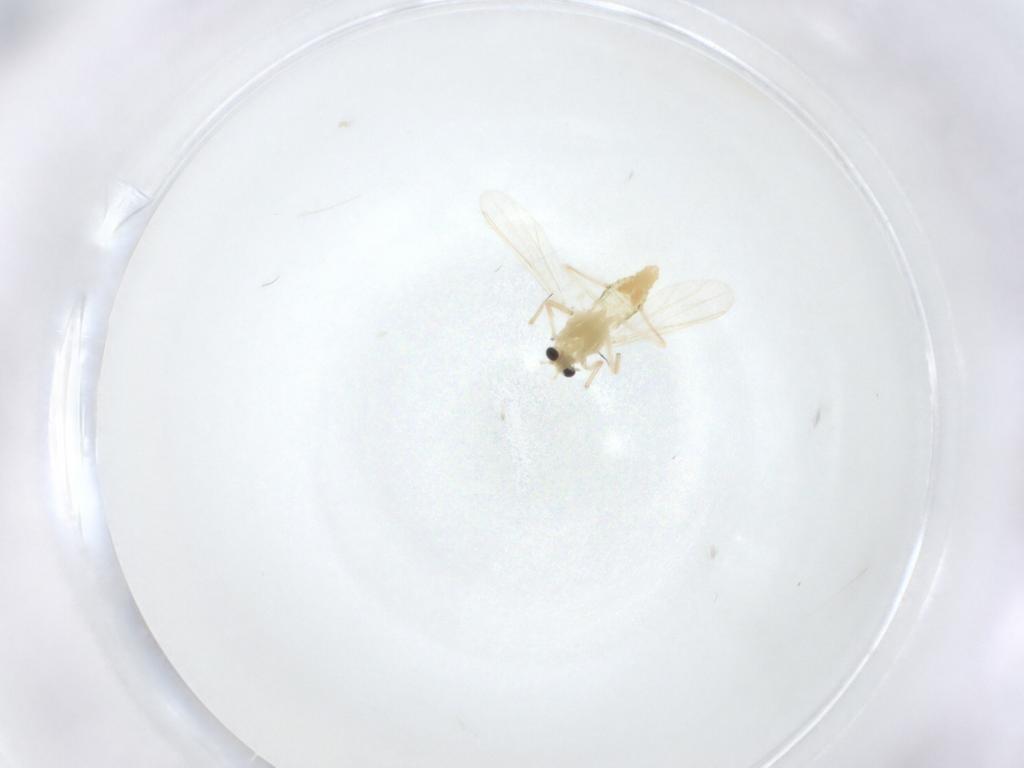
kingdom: Animalia
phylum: Arthropoda
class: Insecta
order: Diptera
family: Chironomidae
